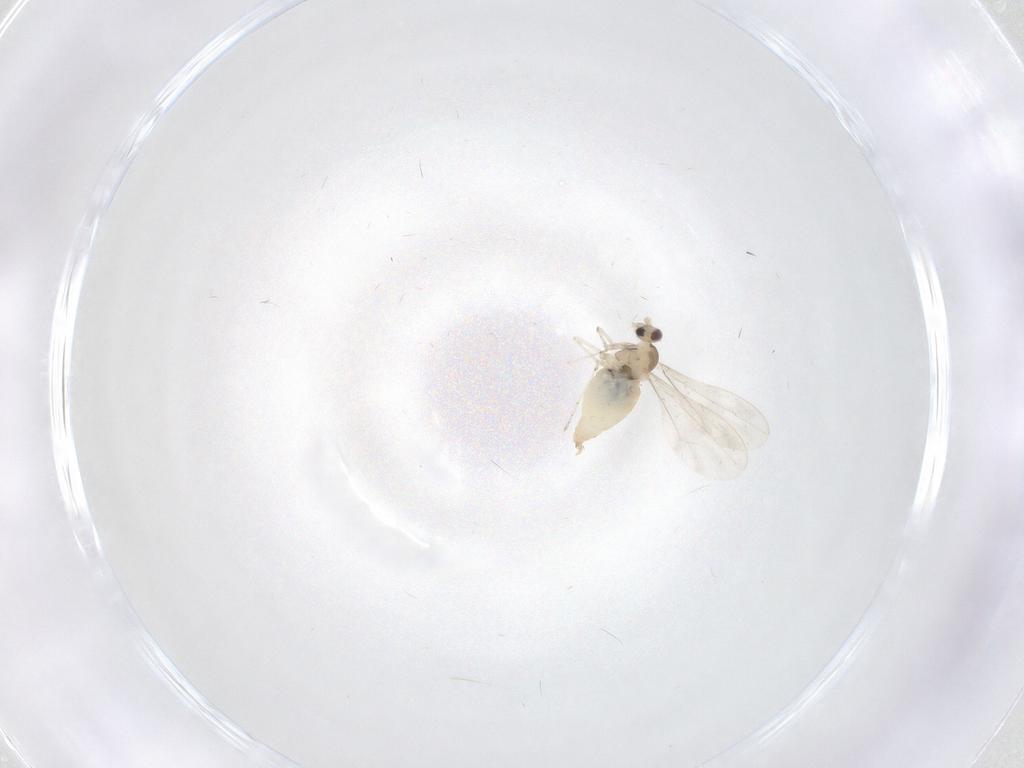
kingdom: Animalia
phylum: Arthropoda
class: Insecta
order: Diptera
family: Cecidomyiidae
